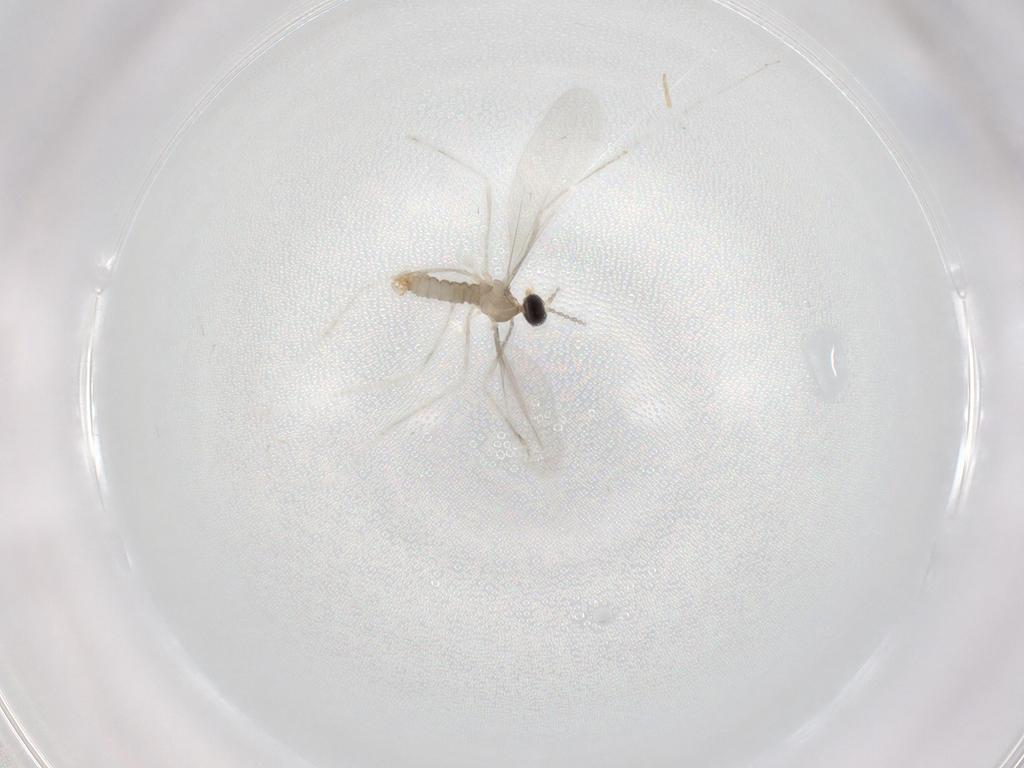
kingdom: Animalia
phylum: Arthropoda
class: Insecta
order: Diptera
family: Cecidomyiidae
